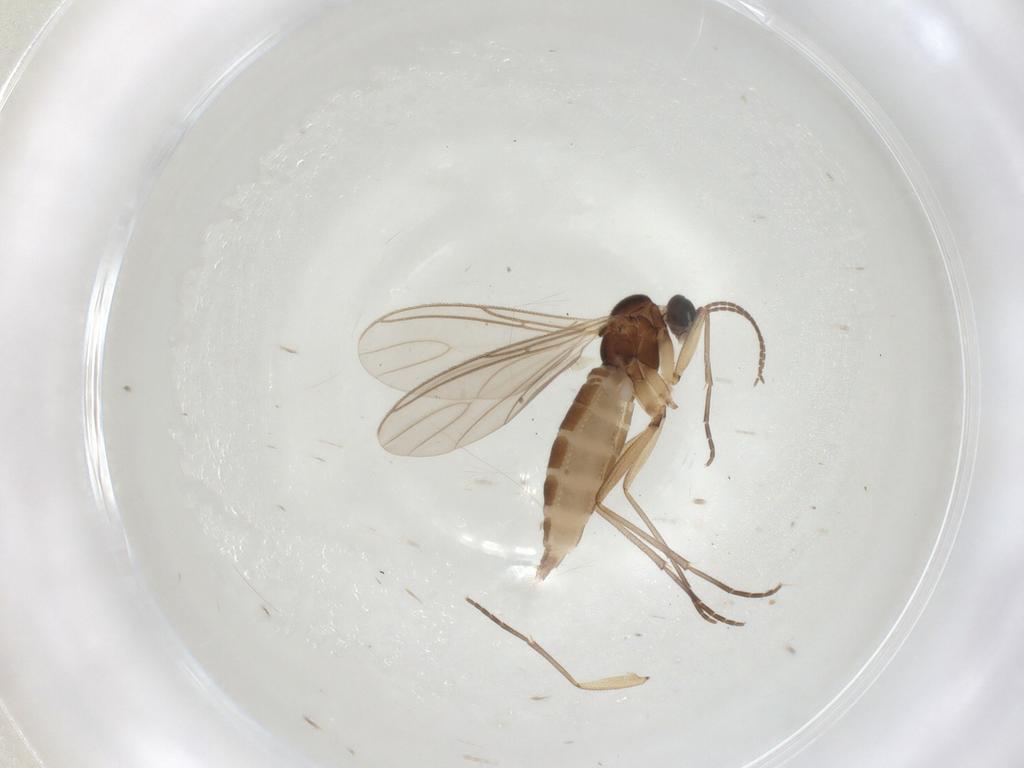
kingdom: Animalia
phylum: Arthropoda
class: Insecta
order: Diptera
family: Sciaridae
